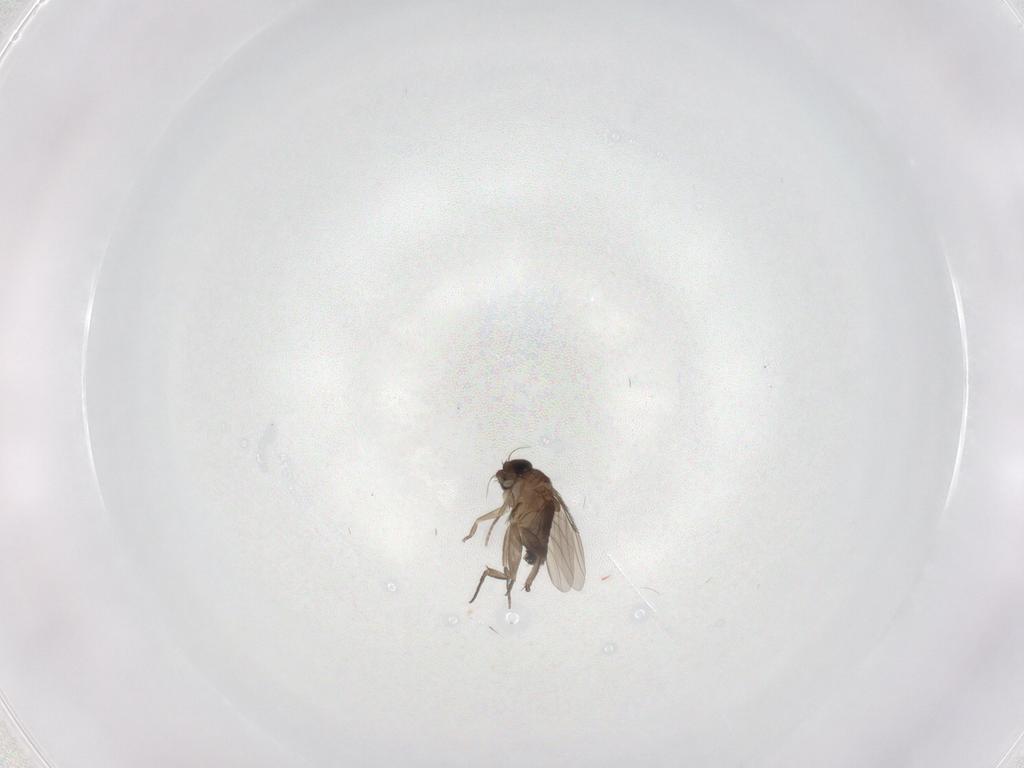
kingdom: Animalia
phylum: Arthropoda
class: Insecta
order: Diptera
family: Phoridae
